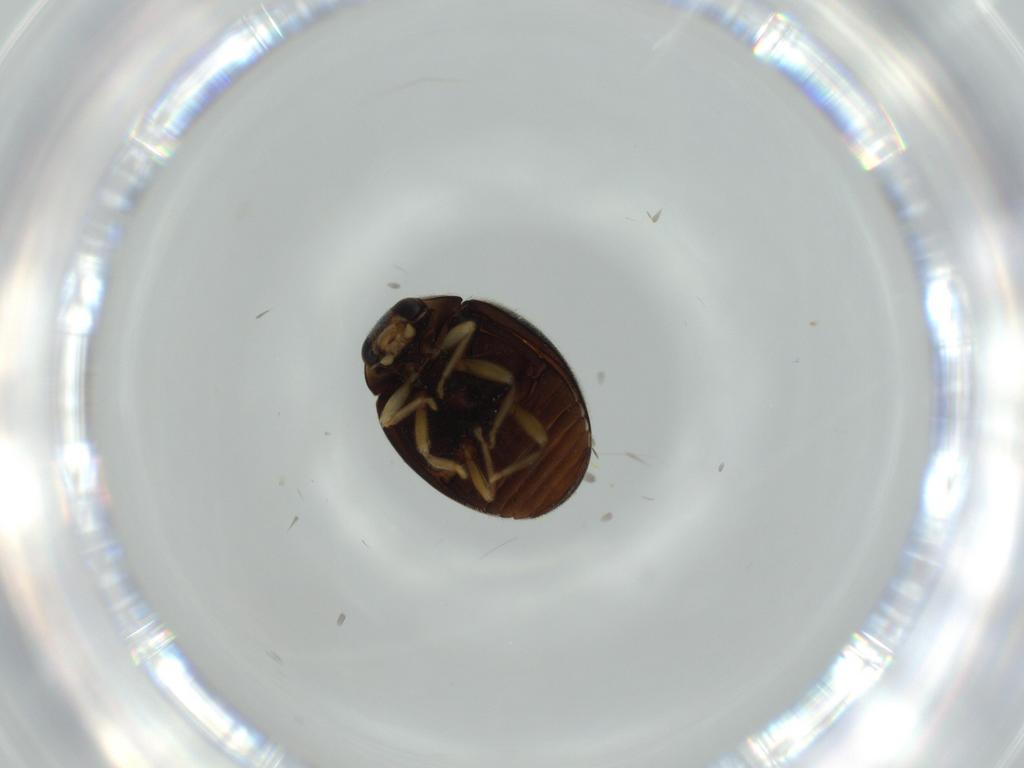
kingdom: Animalia
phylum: Arthropoda
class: Insecta
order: Coleoptera
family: Coccinellidae
